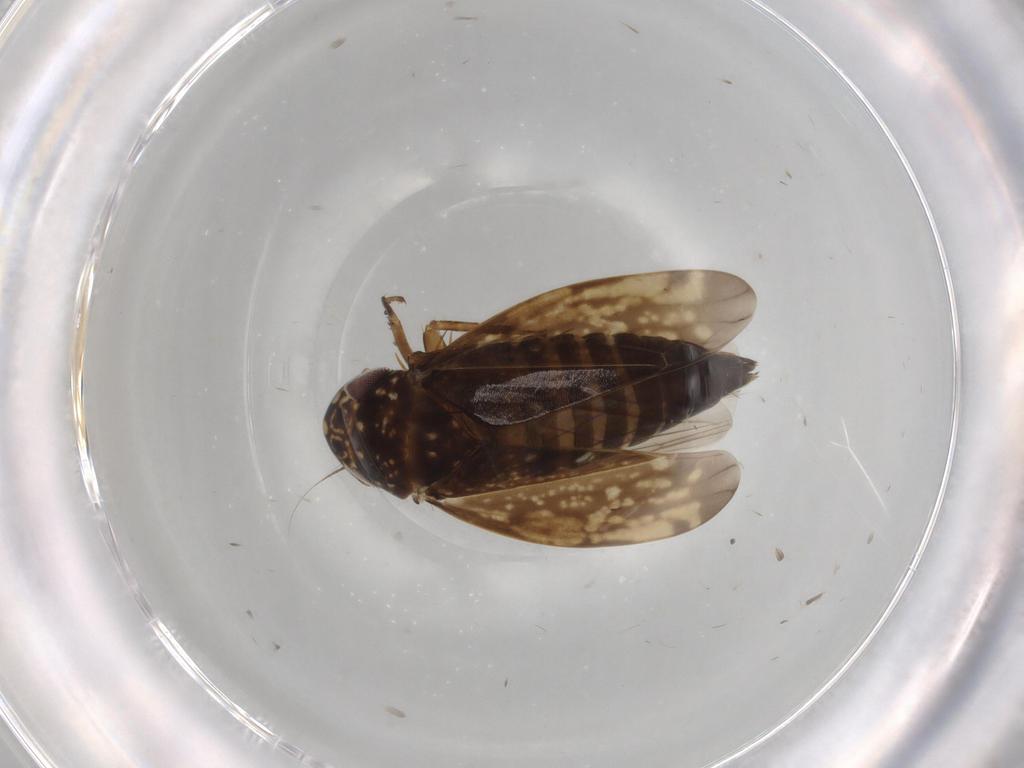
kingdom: Animalia
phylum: Arthropoda
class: Insecta
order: Hemiptera
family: Cicadellidae
